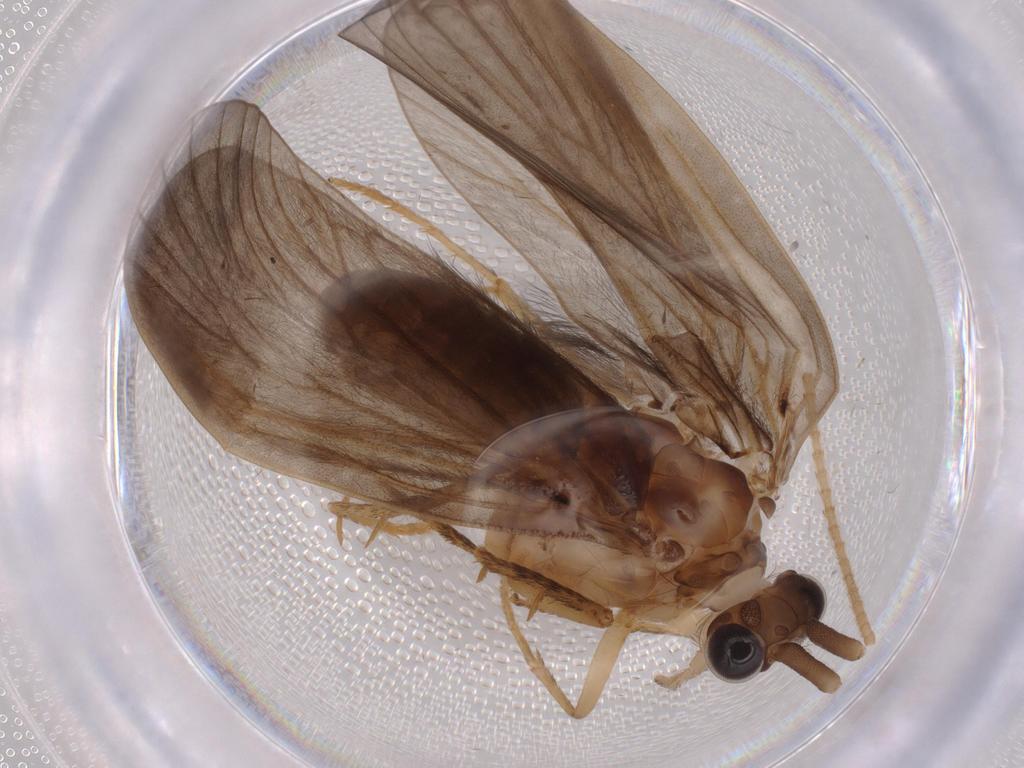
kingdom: Animalia
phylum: Arthropoda
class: Insecta
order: Trichoptera
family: Lepidostomatidae
